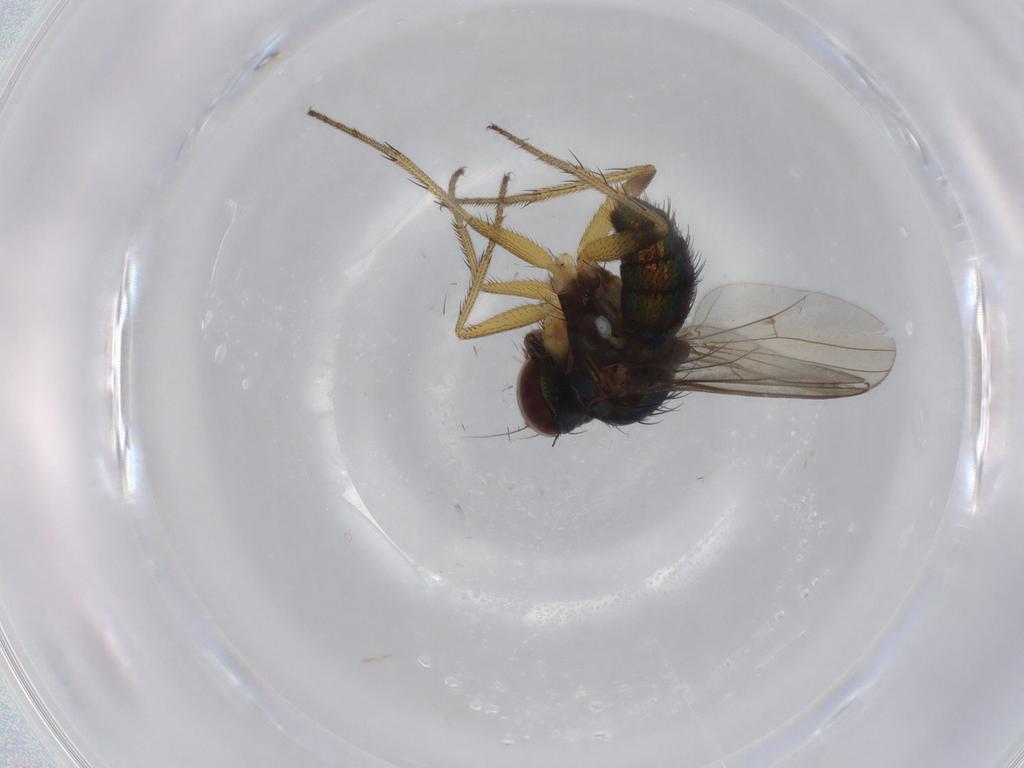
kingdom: Animalia
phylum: Arthropoda
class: Insecta
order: Diptera
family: Dolichopodidae
